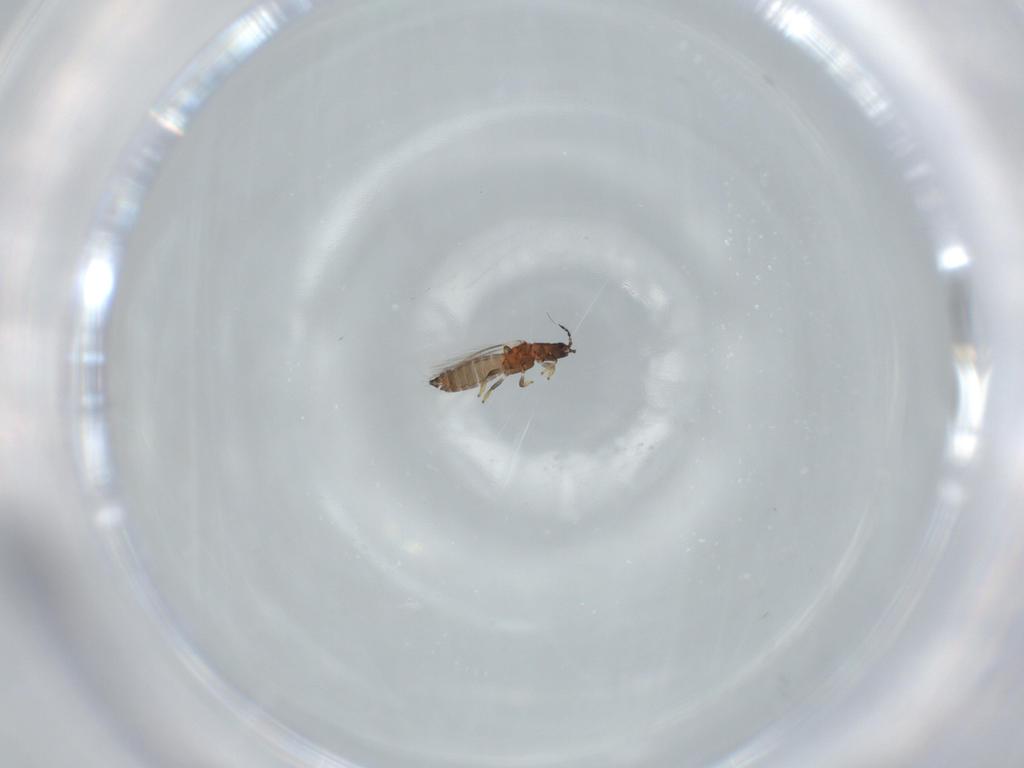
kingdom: Animalia
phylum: Arthropoda
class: Insecta
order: Thysanoptera
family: Thripidae
